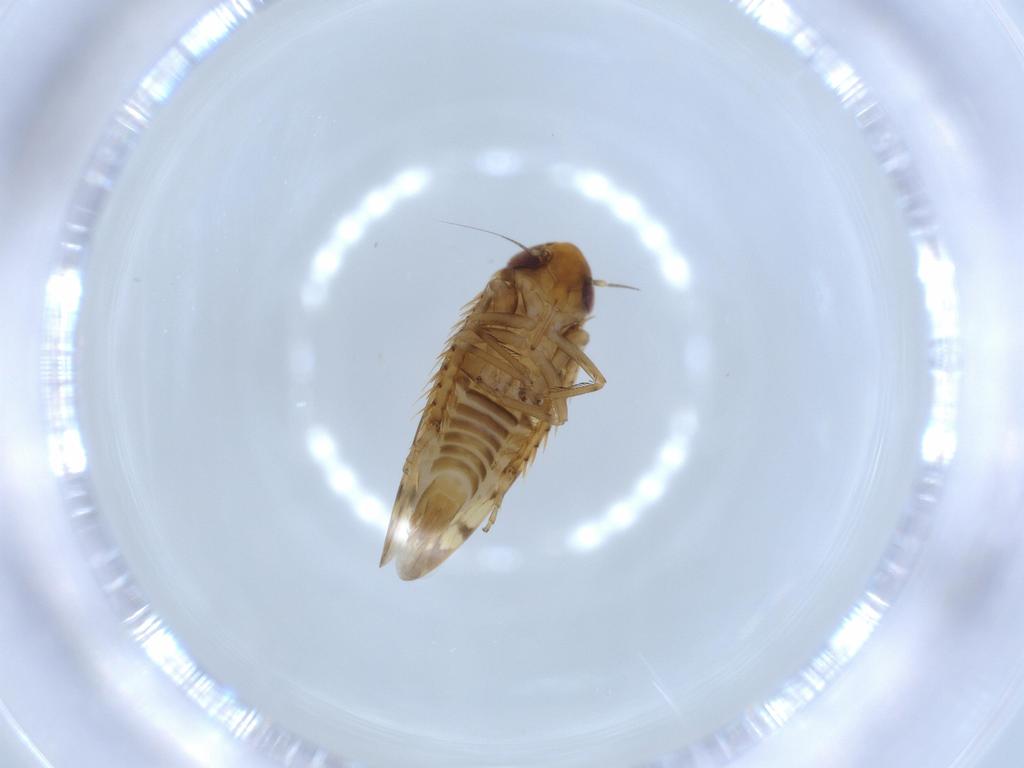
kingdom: Animalia
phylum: Arthropoda
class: Insecta
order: Hemiptera
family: Cicadellidae
